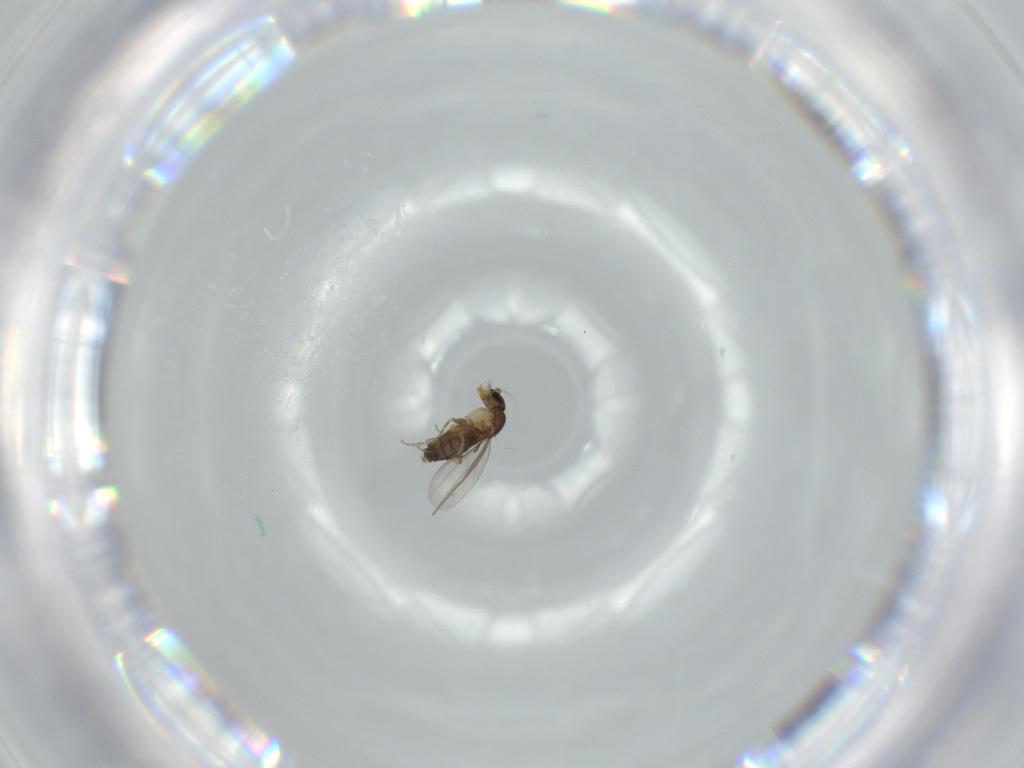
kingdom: Animalia
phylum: Arthropoda
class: Insecta
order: Diptera
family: Phoridae
